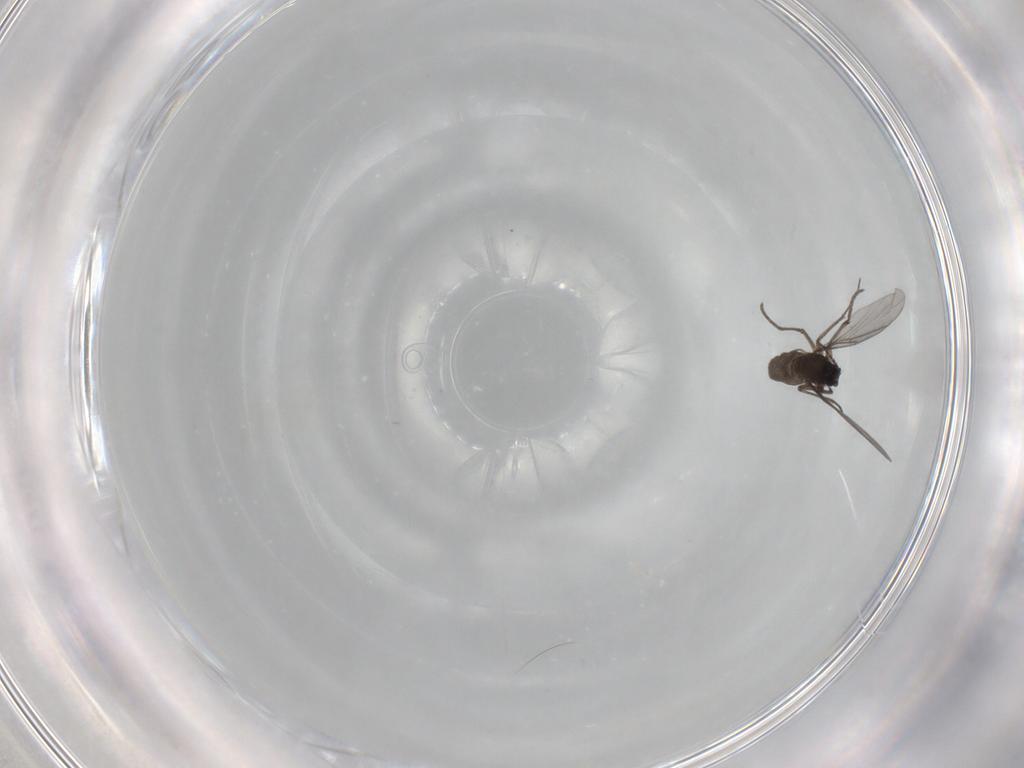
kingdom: Animalia
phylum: Arthropoda
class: Insecta
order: Diptera
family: Sciaridae
